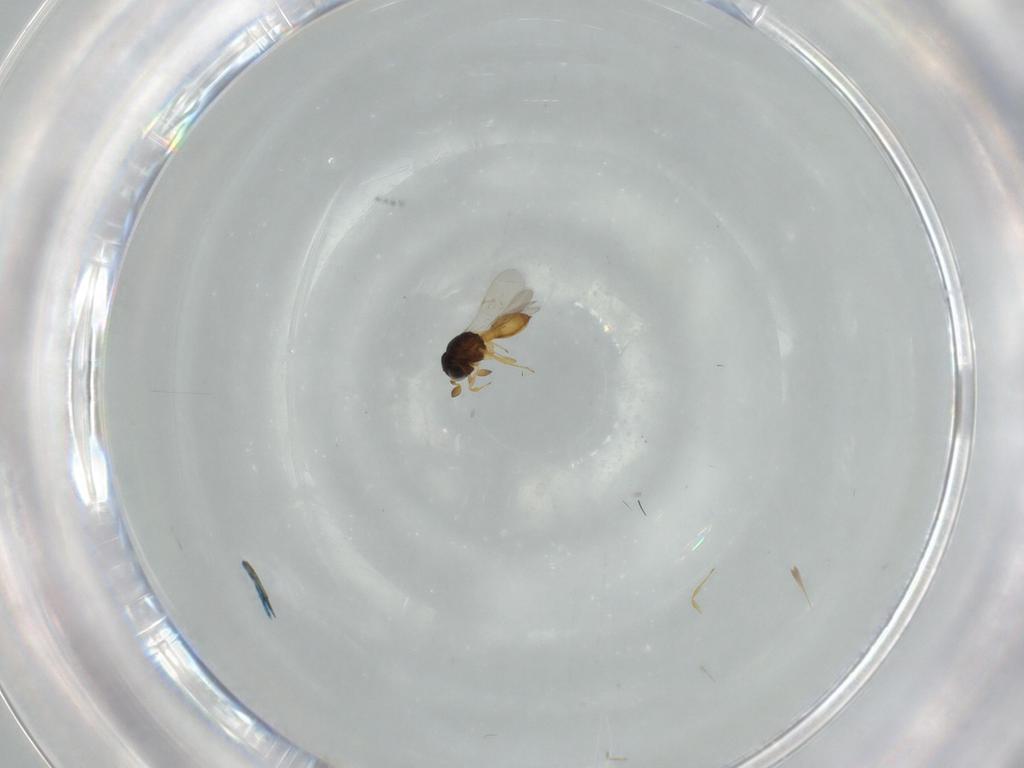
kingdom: Animalia
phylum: Arthropoda
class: Insecta
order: Hymenoptera
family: Scelionidae
